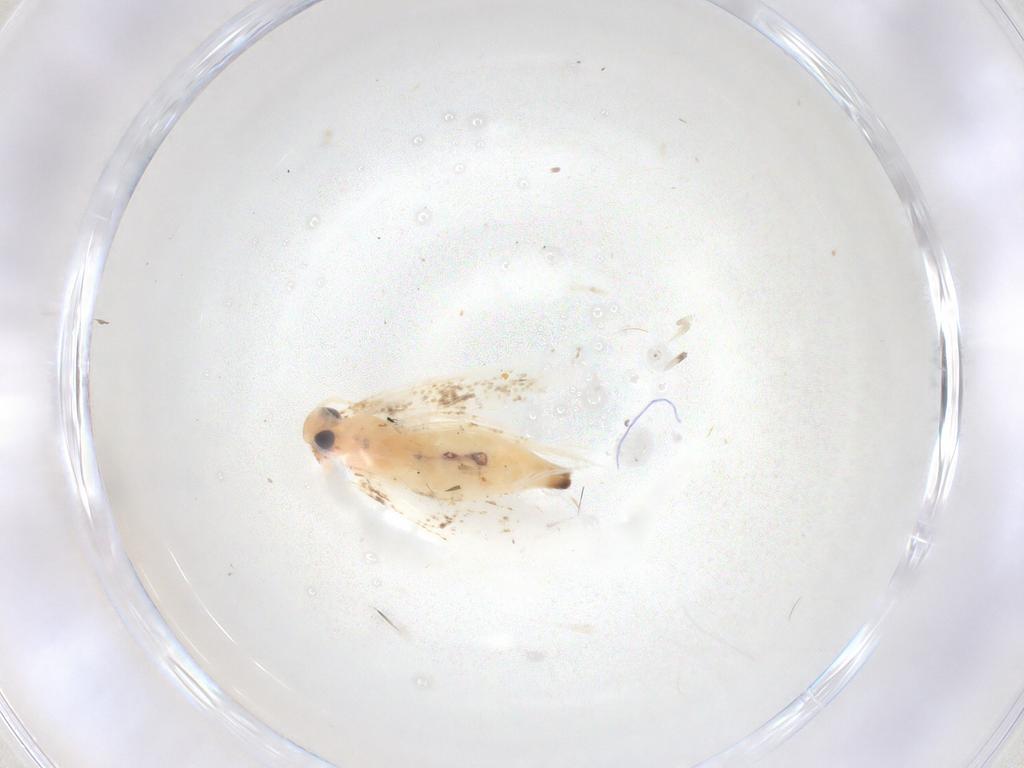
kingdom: Animalia
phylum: Arthropoda
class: Insecta
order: Lepidoptera
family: Gelechiidae
